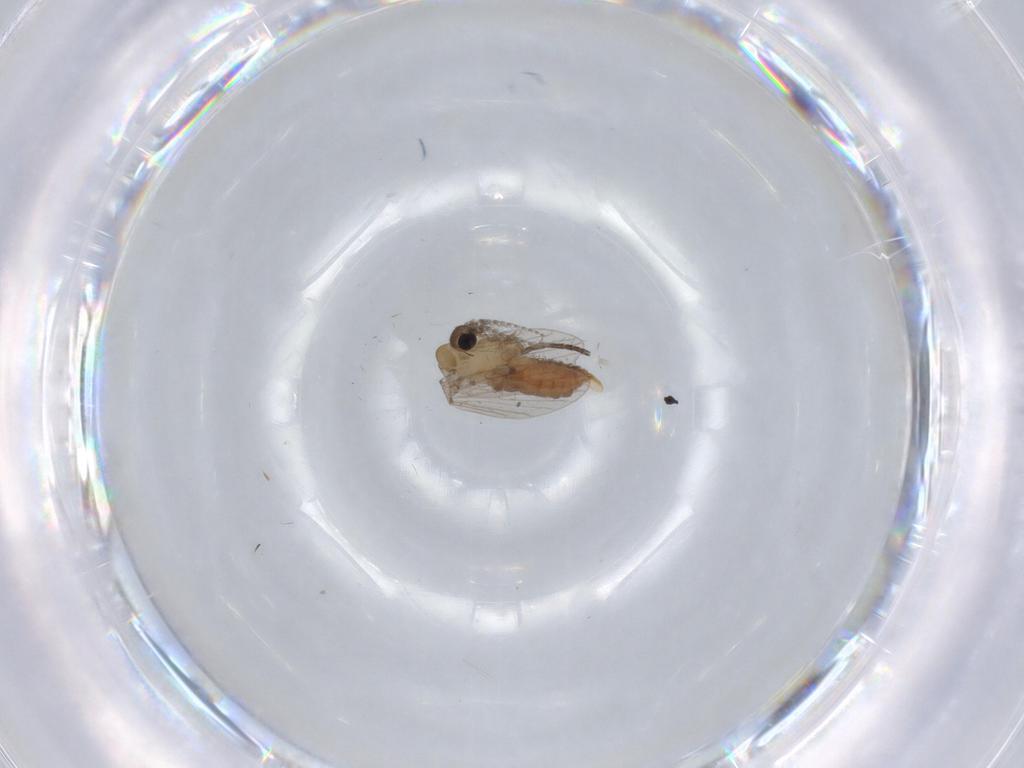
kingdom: Animalia
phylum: Arthropoda
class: Insecta
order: Diptera
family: Psychodidae
